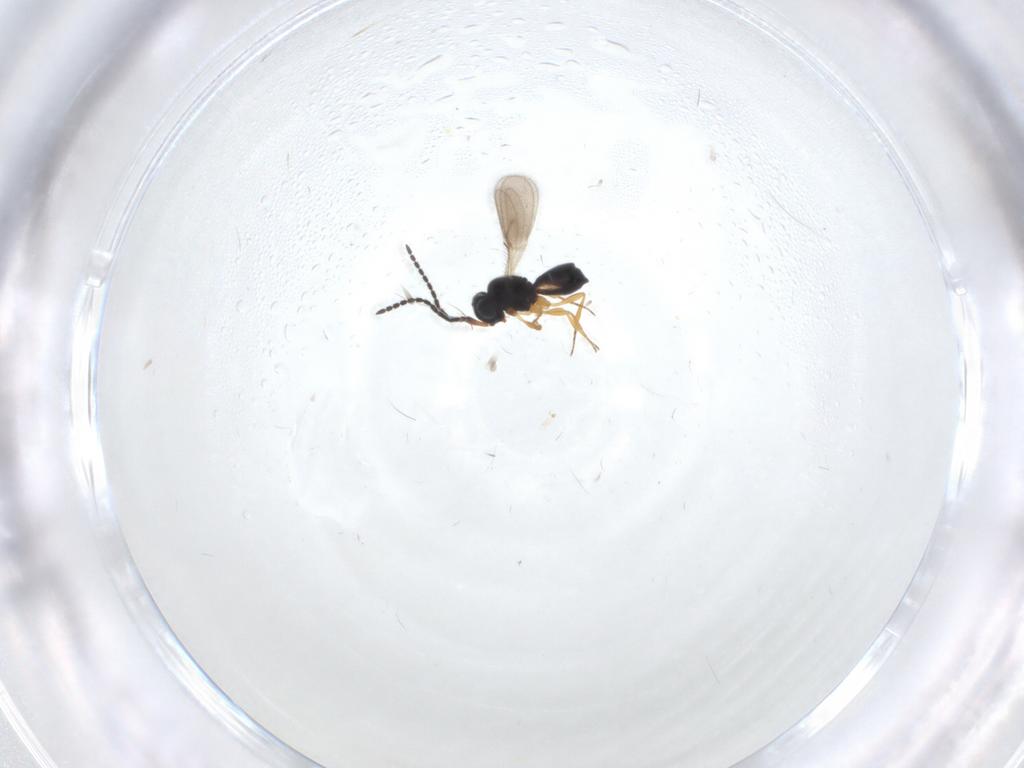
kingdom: Animalia
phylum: Arthropoda
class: Insecta
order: Hymenoptera
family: Scelionidae
